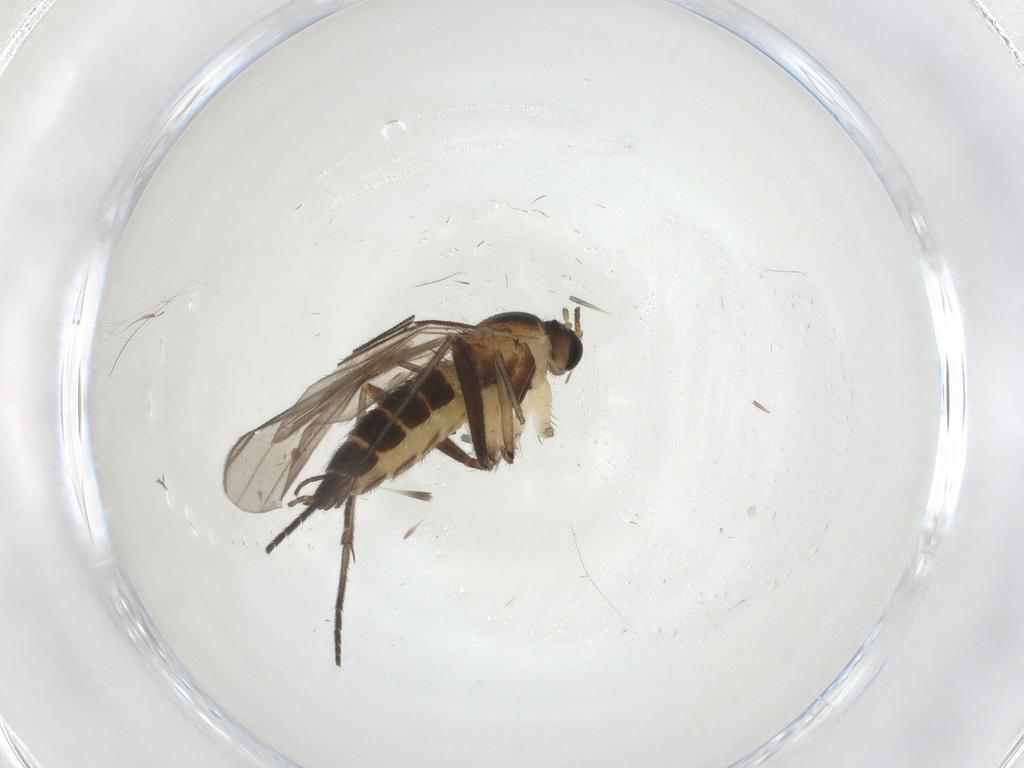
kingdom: Animalia
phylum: Arthropoda
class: Insecta
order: Diptera
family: Sciaridae
